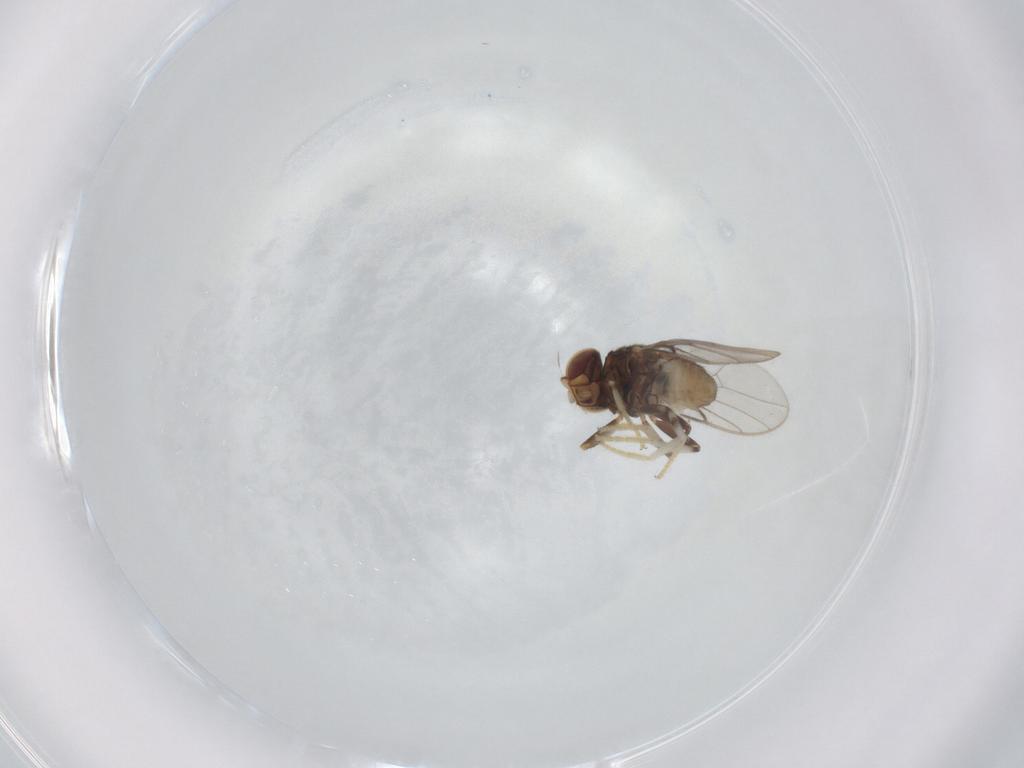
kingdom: Animalia
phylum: Arthropoda
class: Insecta
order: Diptera
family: Chloropidae
